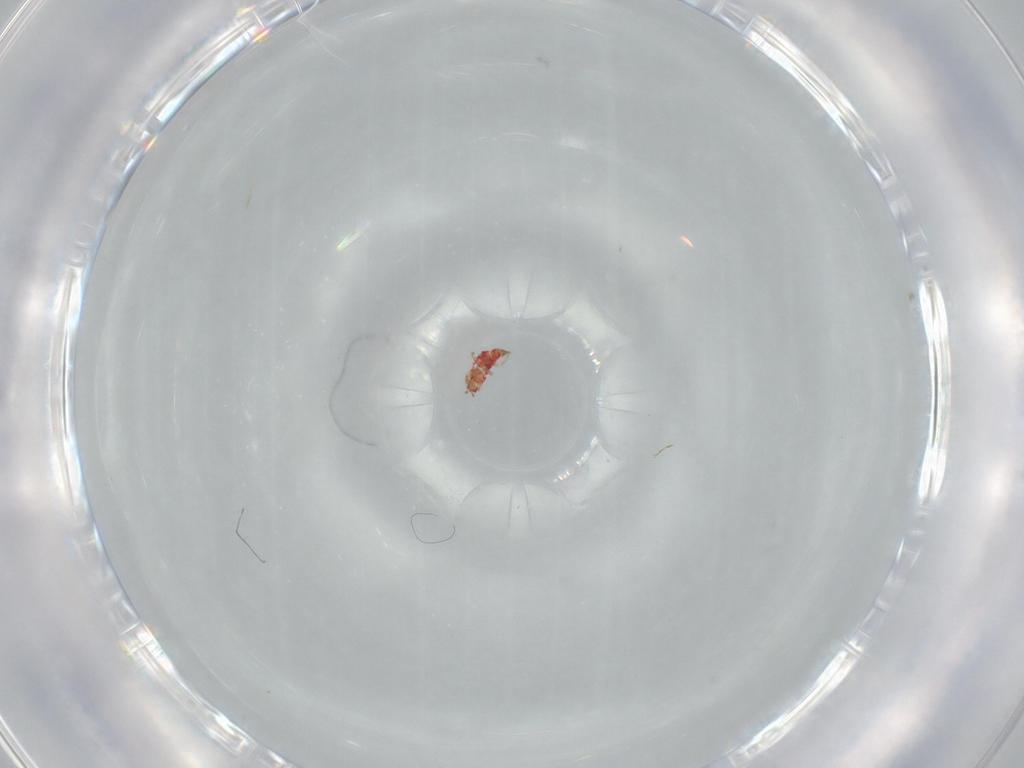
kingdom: Animalia
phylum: Arthropoda
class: Insecta
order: Thysanoptera
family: Phlaeothripidae
